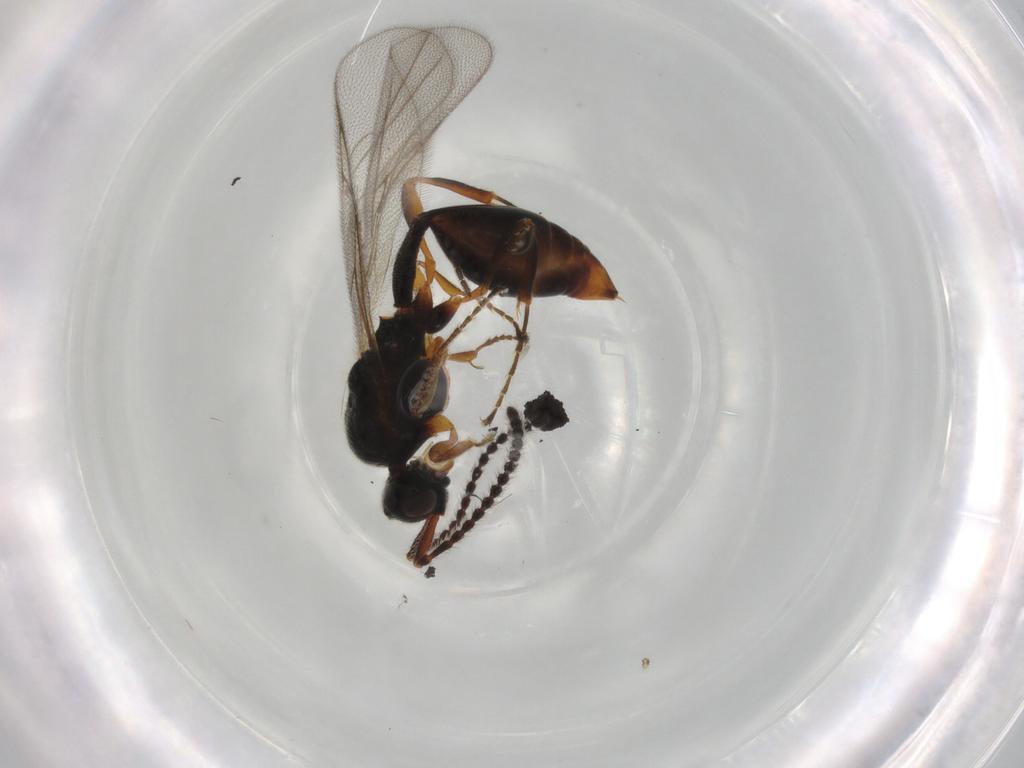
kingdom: Animalia
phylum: Arthropoda
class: Insecta
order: Hymenoptera
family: Diapriidae
